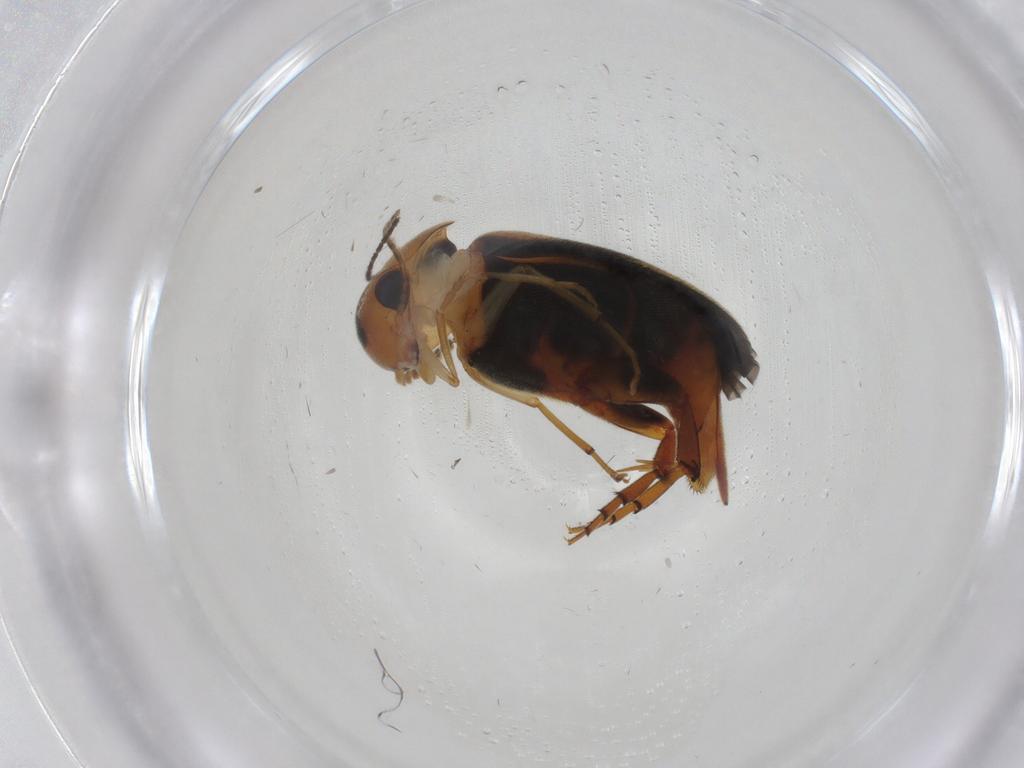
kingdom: Animalia
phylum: Arthropoda
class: Insecta
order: Coleoptera
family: Mordellidae
